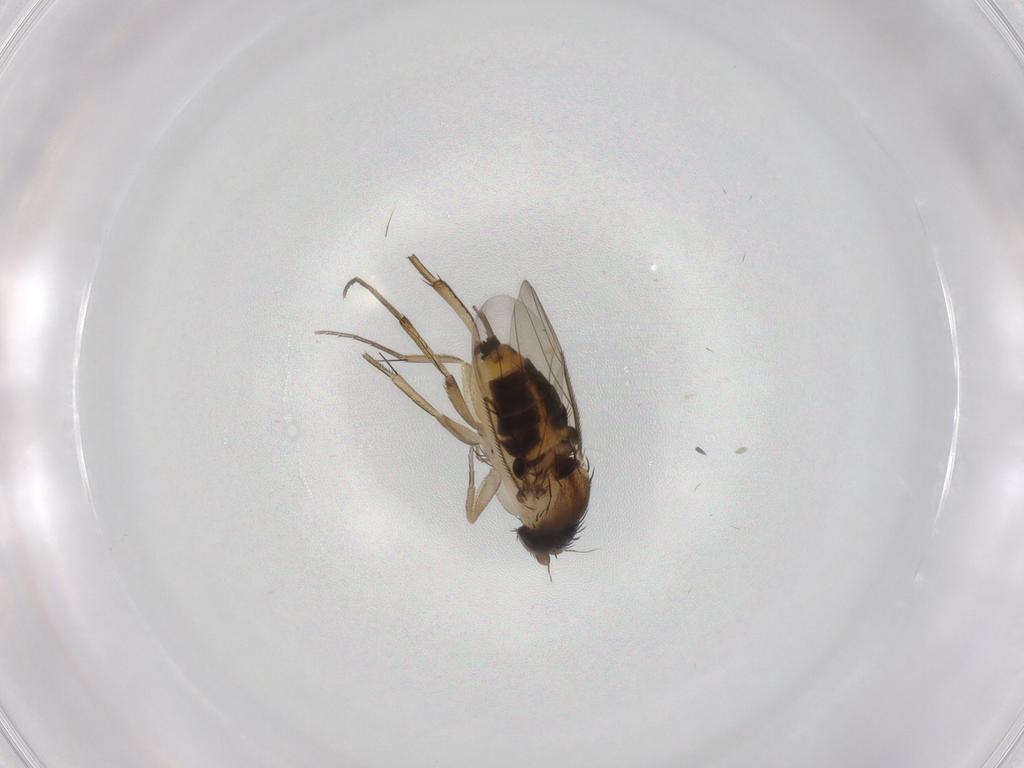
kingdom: Animalia
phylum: Arthropoda
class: Insecta
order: Diptera
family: Phoridae
